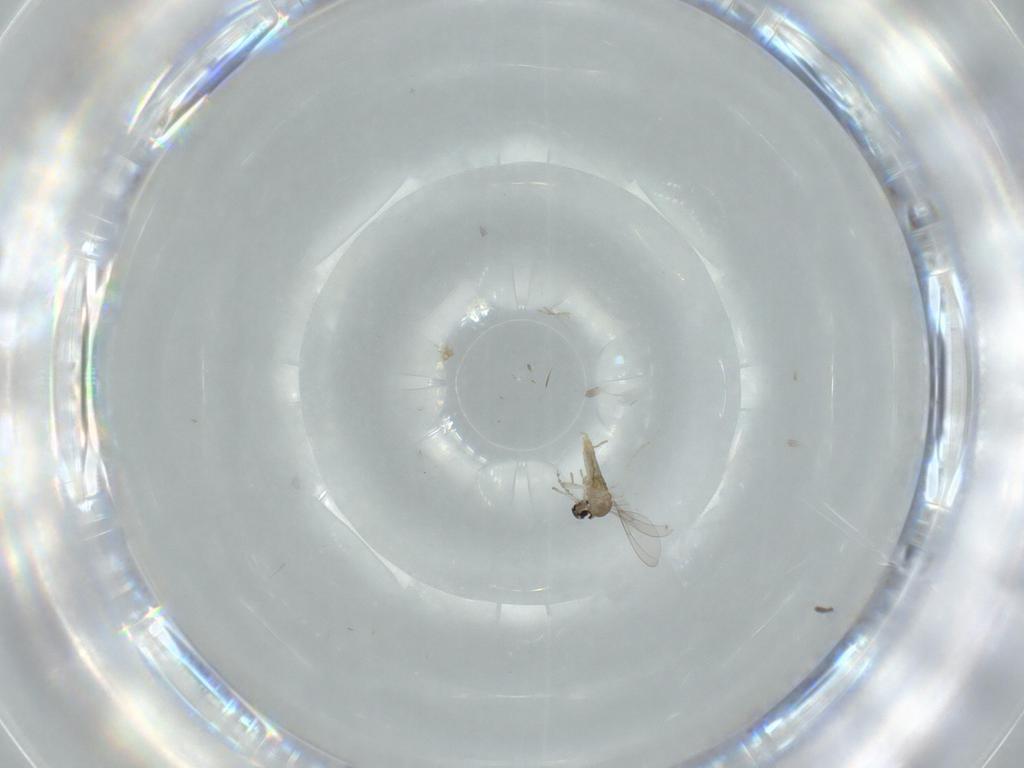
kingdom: Animalia
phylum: Arthropoda
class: Insecta
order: Diptera
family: Cecidomyiidae
